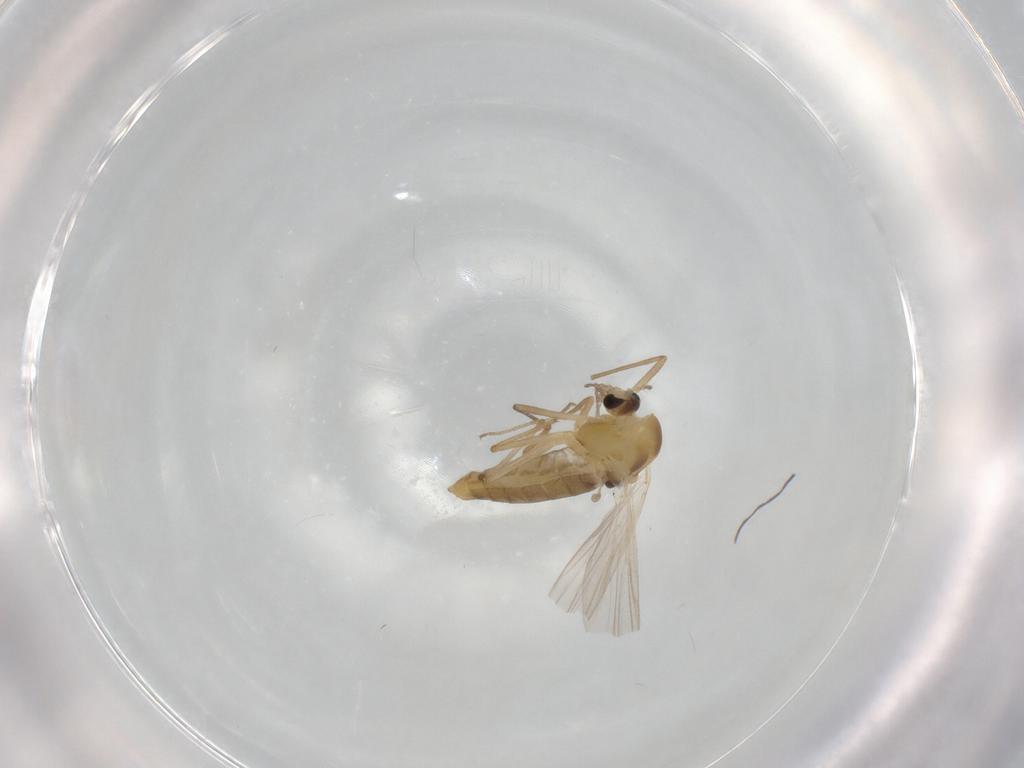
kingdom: Animalia
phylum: Arthropoda
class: Insecta
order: Diptera
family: Chironomidae
